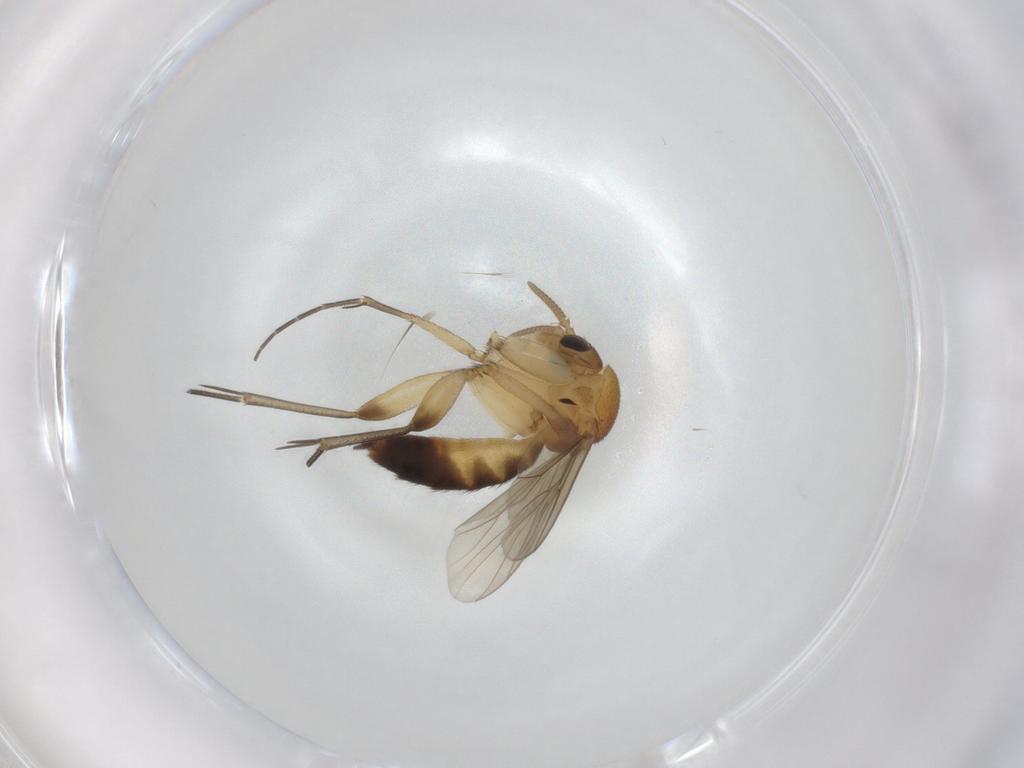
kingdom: Animalia
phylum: Arthropoda
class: Insecta
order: Diptera
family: Mycetophilidae
